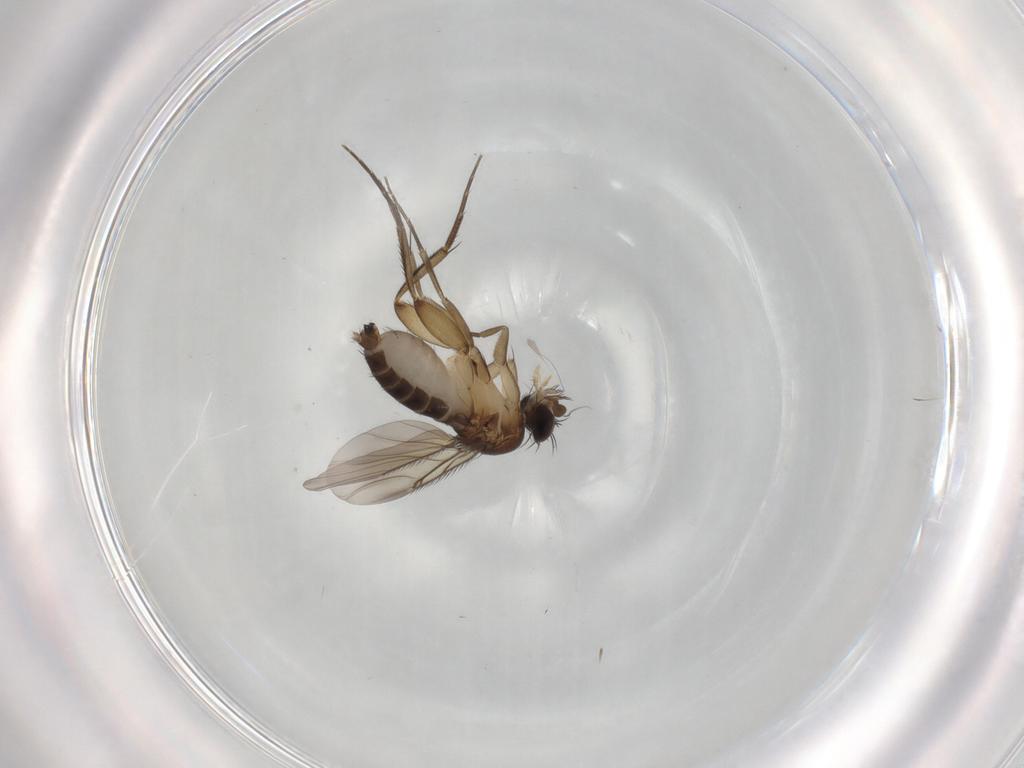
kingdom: Animalia
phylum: Arthropoda
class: Insecta
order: Diptera
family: Phoridae
